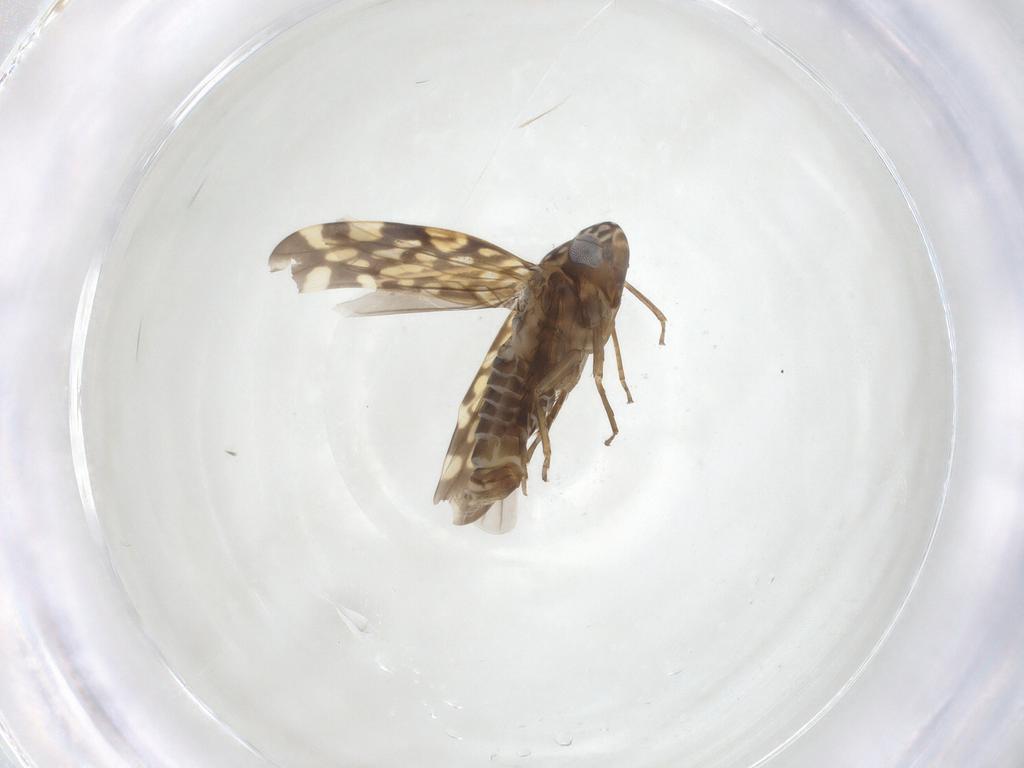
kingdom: Animalia
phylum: Arthropoda
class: Insecta
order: Hemiptera
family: Cicadellidae
